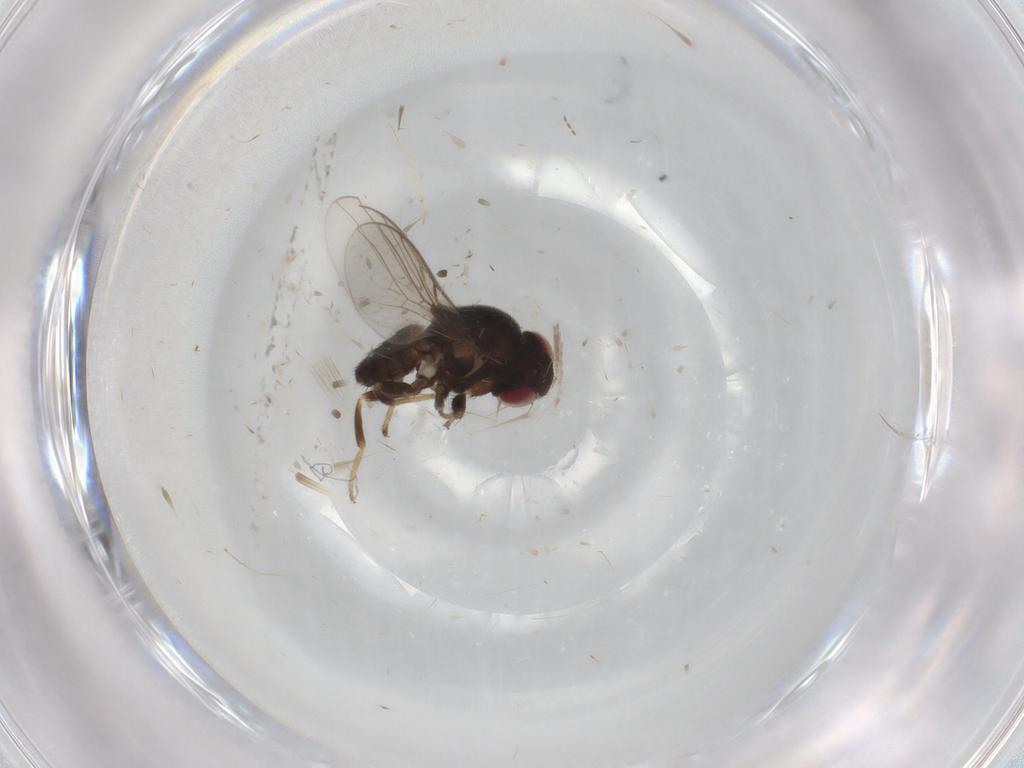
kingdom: Animalia
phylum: Arthropoda
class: Insecta
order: Diptera
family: Chloropidae
